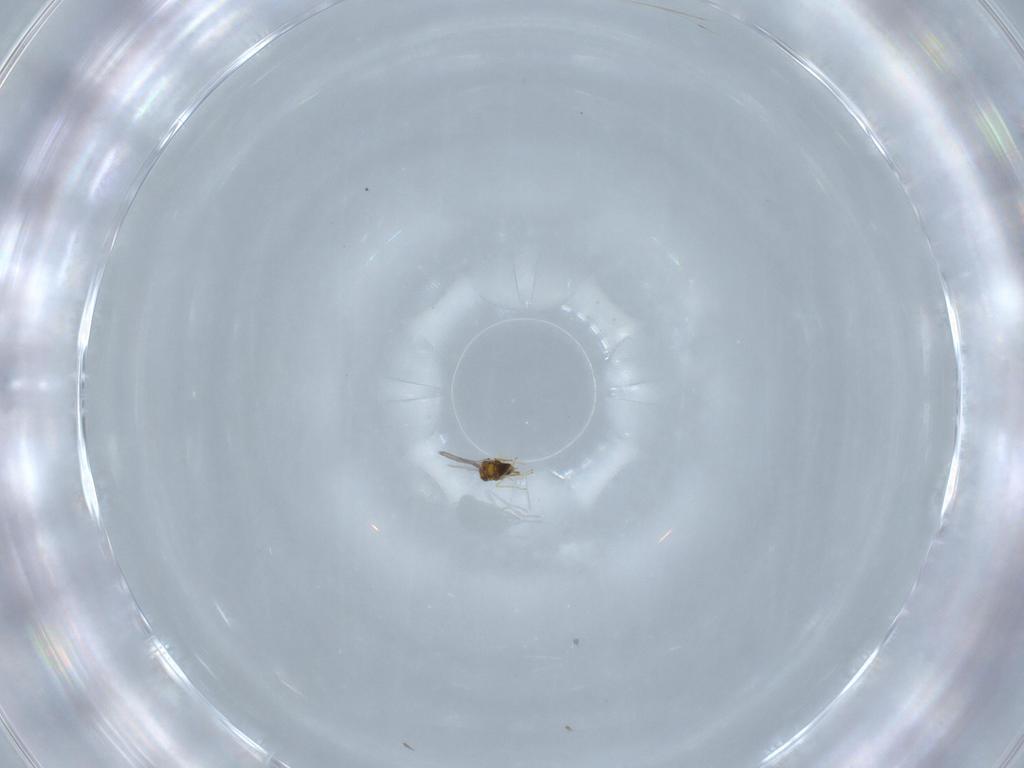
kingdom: Animalia
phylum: Arthropoda
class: Insecta
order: Hymenoptera
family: Aphelinidae
